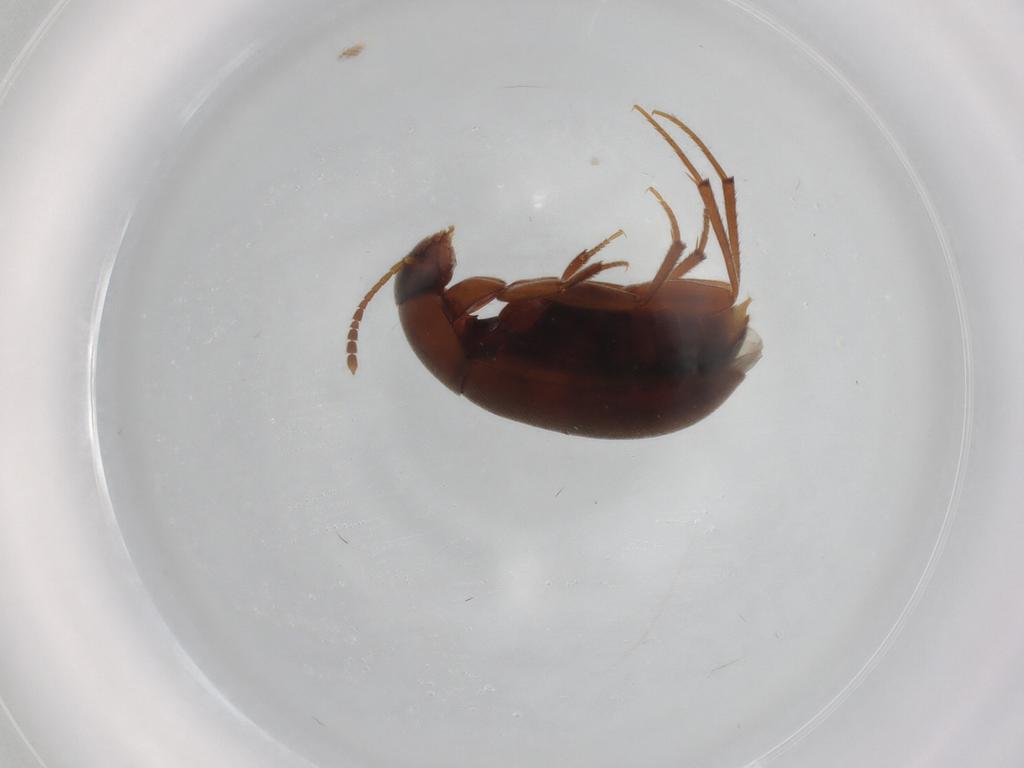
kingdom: Animalia
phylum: Arthropoda
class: Insecta
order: Coleoptera
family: Leiodidae
